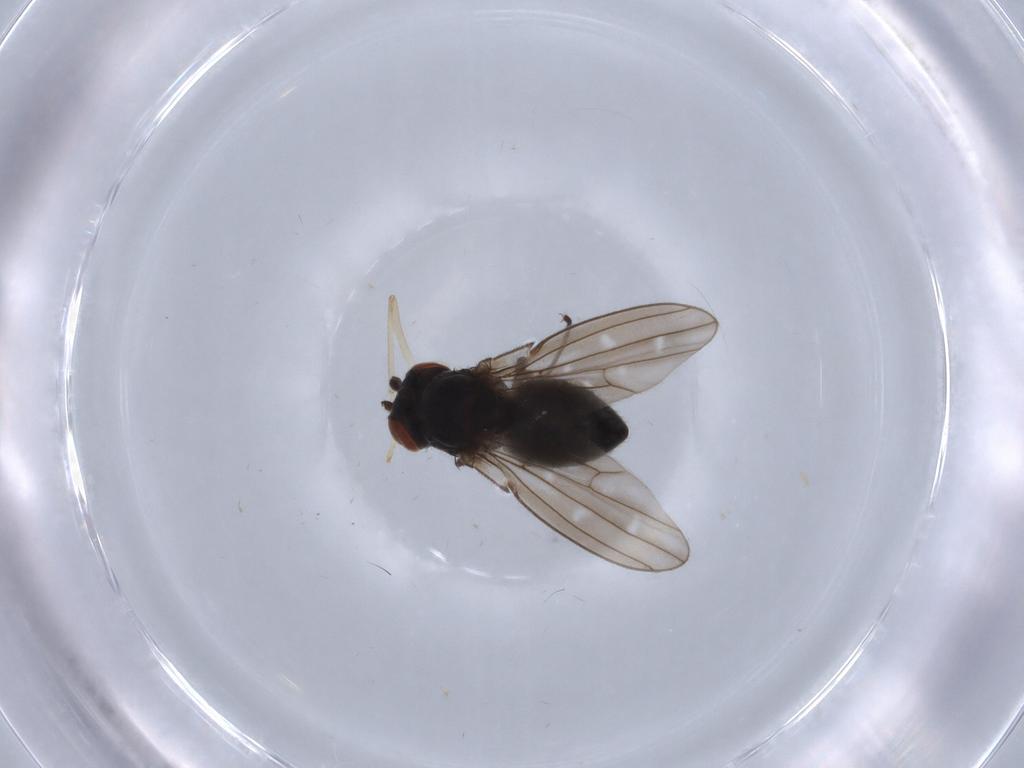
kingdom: Animalia
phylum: Arthropoda
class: Insecta
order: Diptera
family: Ephydridae
